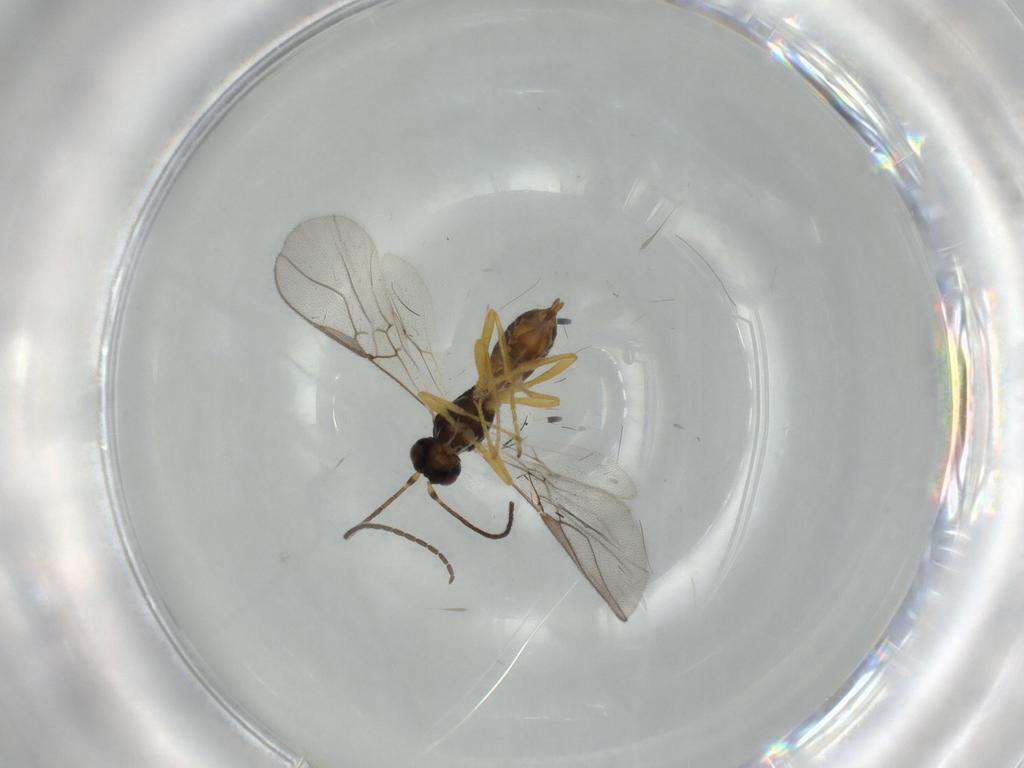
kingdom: Animalia
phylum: Arthropoda
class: Insecta
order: Hymenoptera
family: Braconidae
